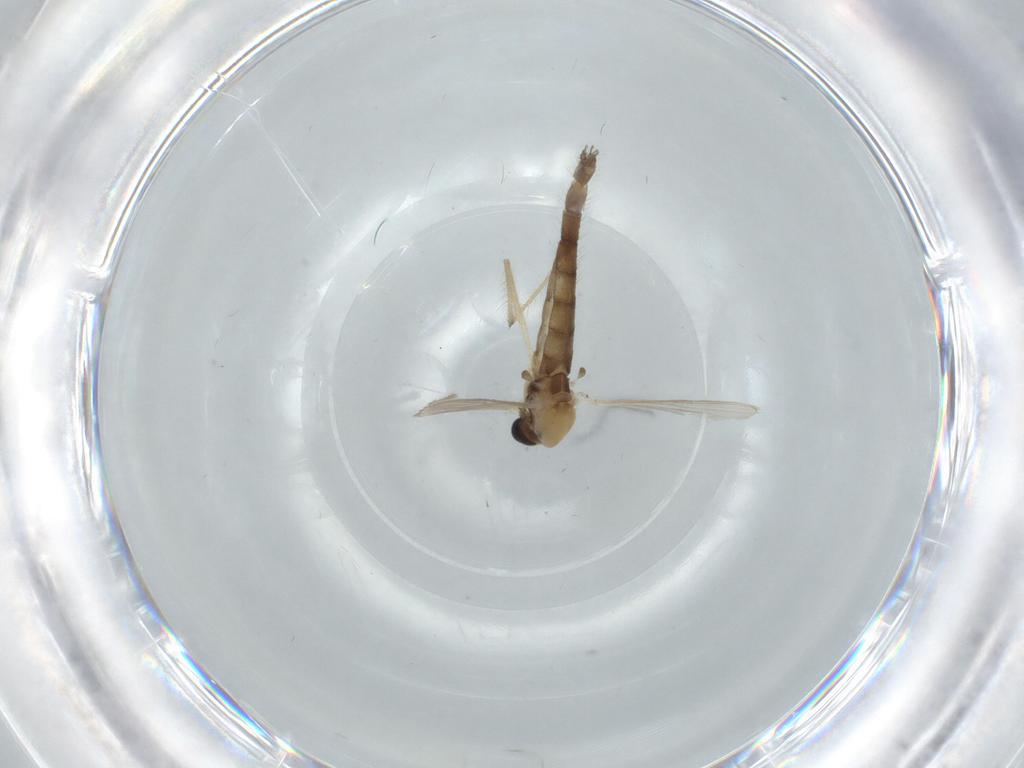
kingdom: Animalia
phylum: Arthropoda
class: Insecta
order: Diptera
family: Chironomidae
